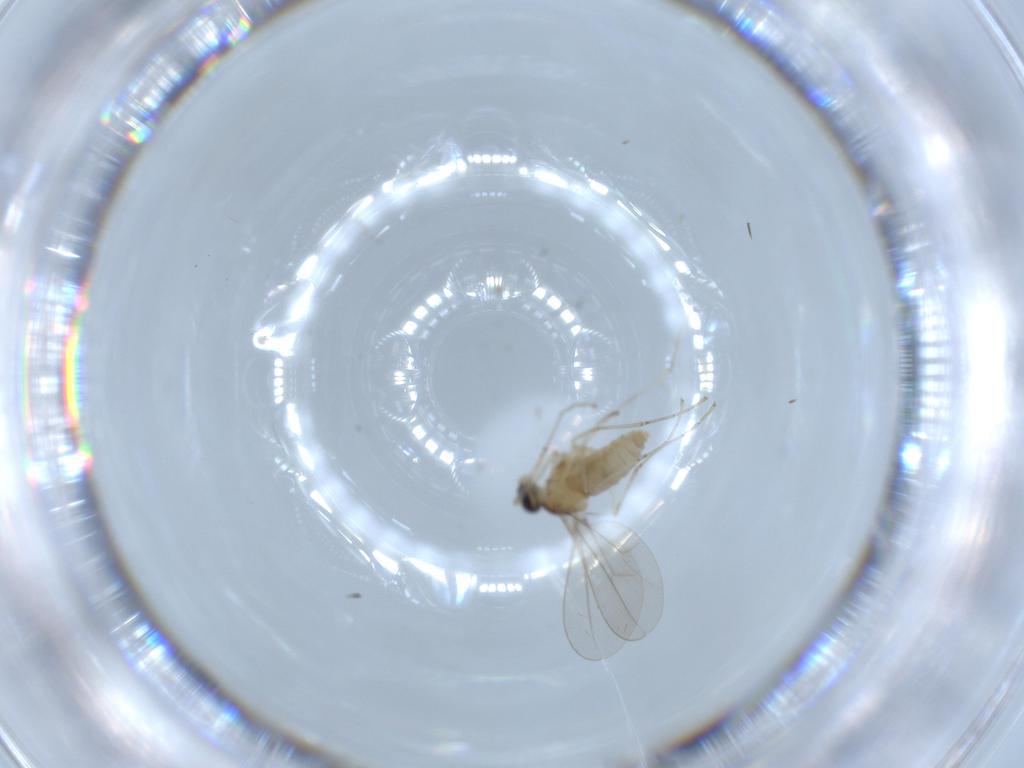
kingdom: Animalia
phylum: Arthropoda
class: Insecta
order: Diptera
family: Cecidomyiidae
